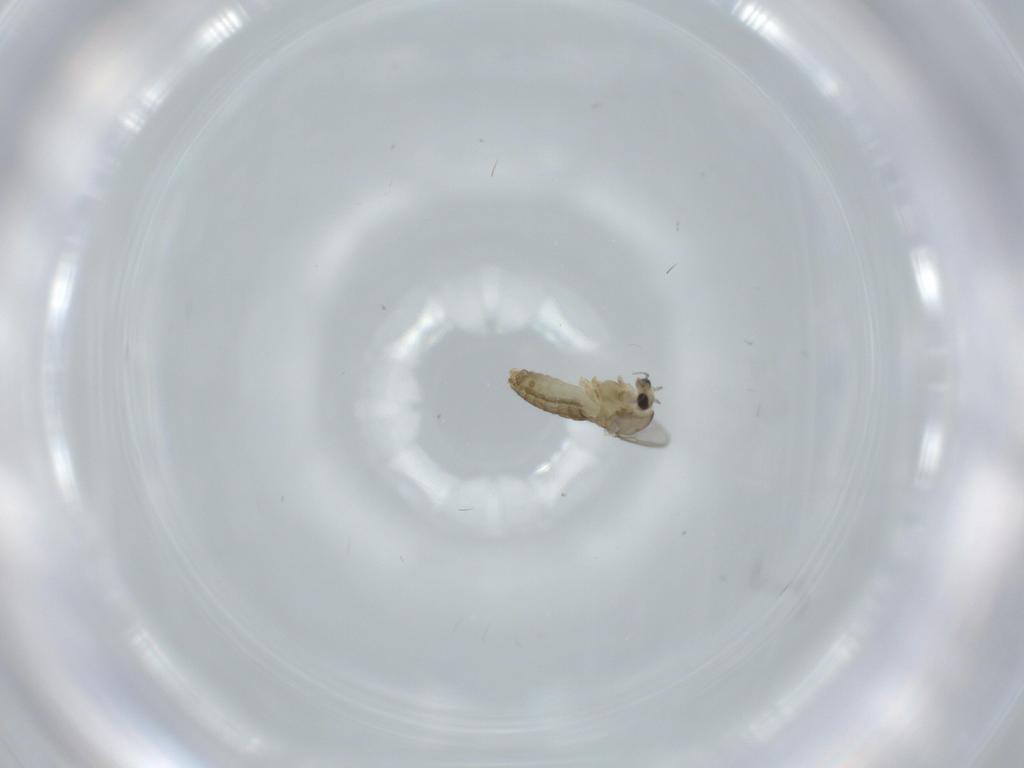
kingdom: Animalia
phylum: Arthropoda
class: Insecta
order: Diptera
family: Chironomidae
